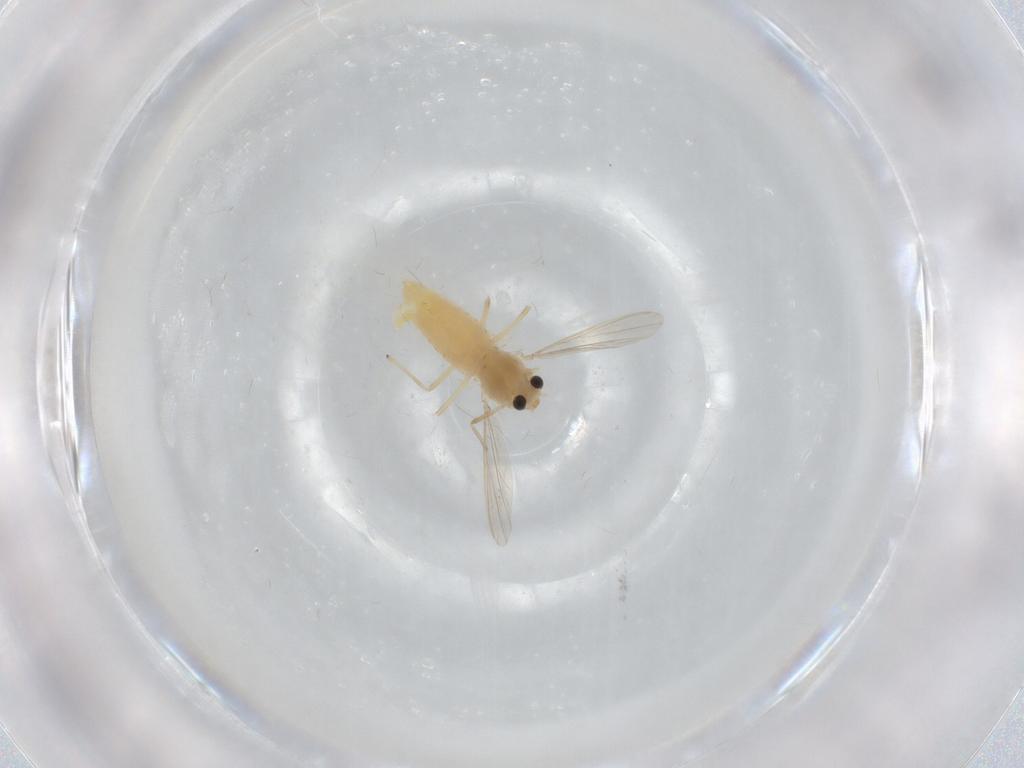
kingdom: Animalia
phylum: Arthropoda
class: Insecta
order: Diptera
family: Chironomidae
